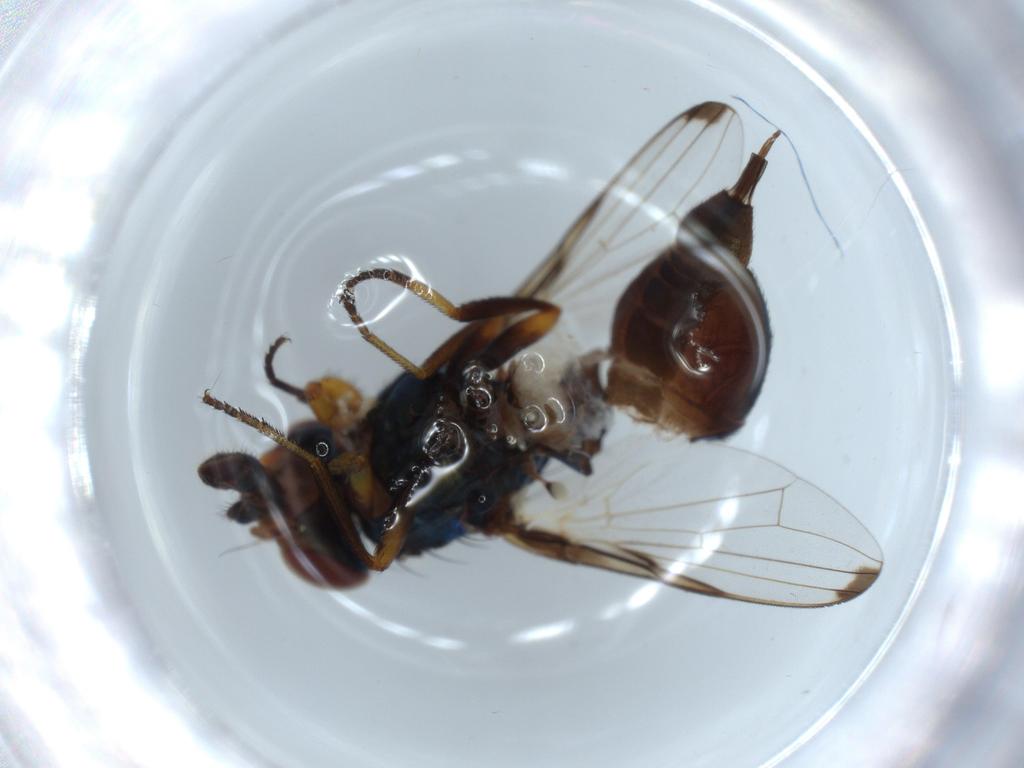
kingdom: Animalia
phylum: Arthropoda
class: Insecta
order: Diptera
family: Ulidiidae
